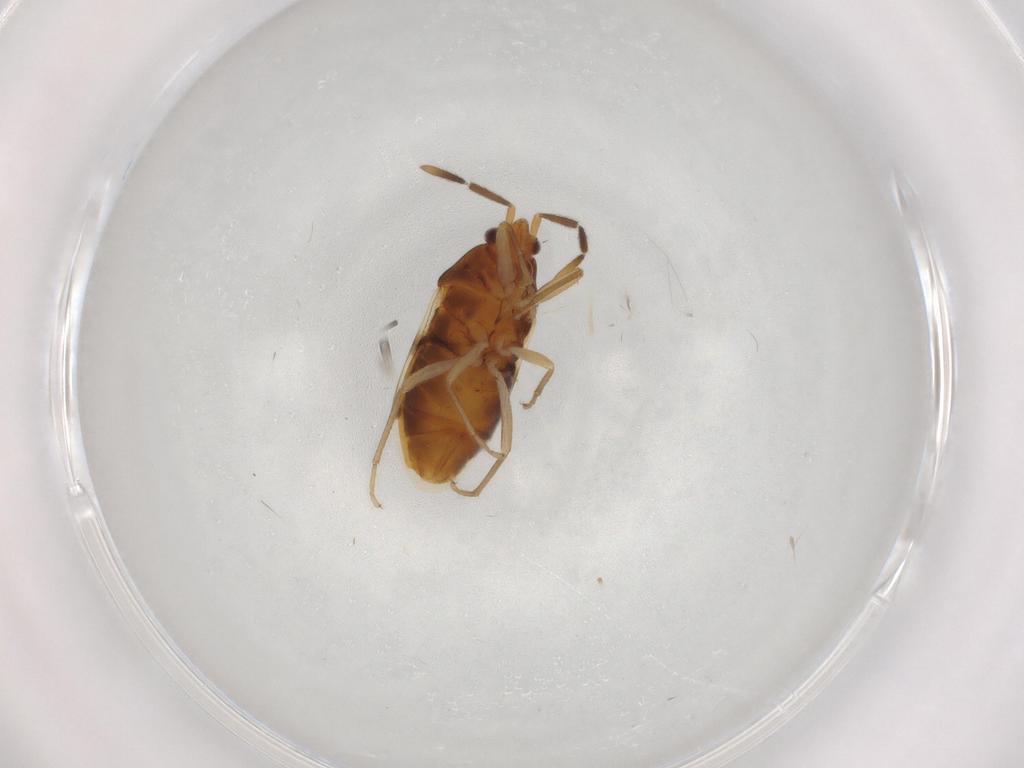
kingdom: Animalia
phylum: Arthropoda
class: Insecta
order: Hemiptera
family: Rhyparochromidae
